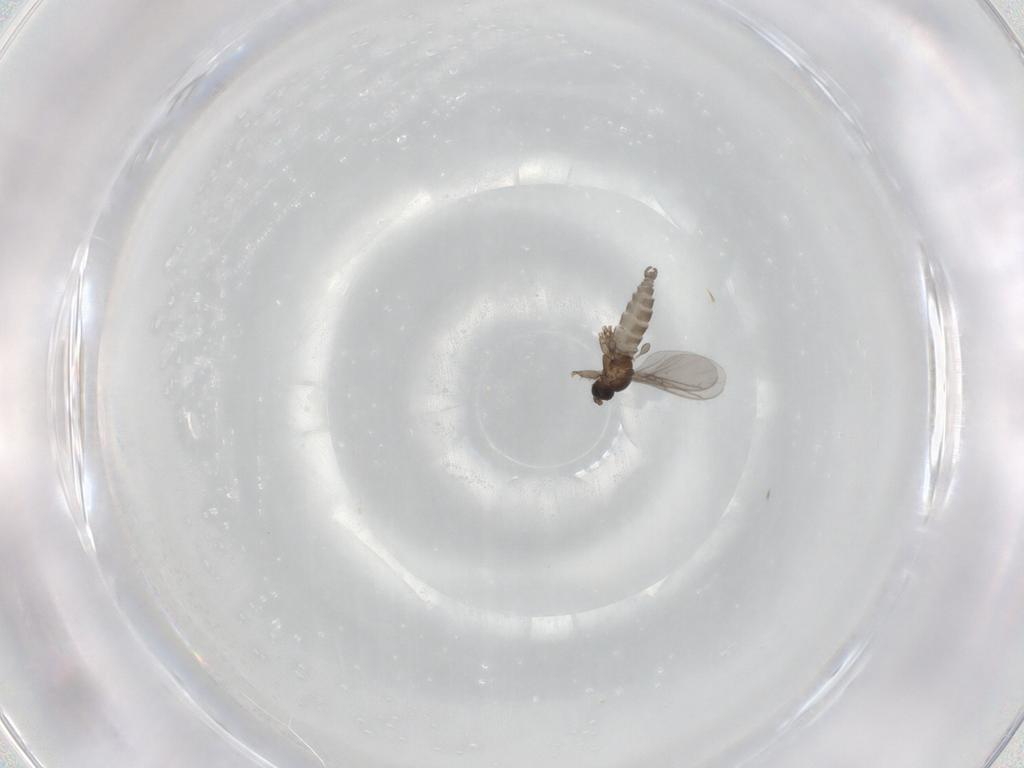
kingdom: Animalia
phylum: Arthropoda
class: Insecta
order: Diptera
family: Sciaridae
